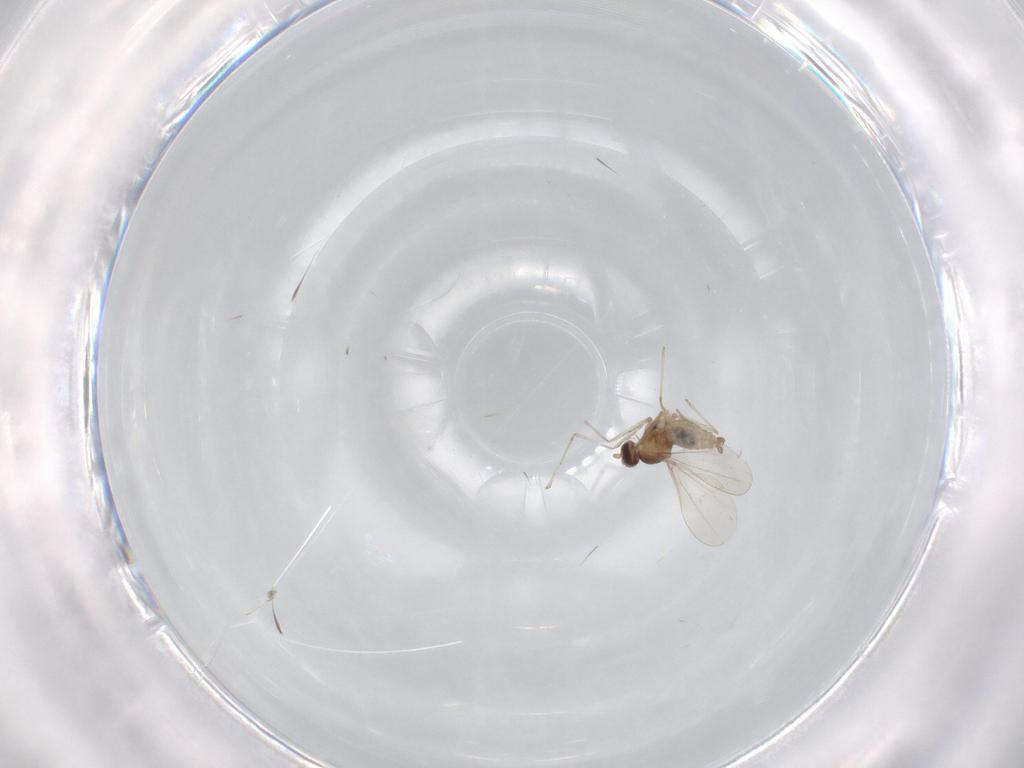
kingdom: Animalia
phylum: Arthropoda
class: Insecta
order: Diptera
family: Cecidomyiidae
